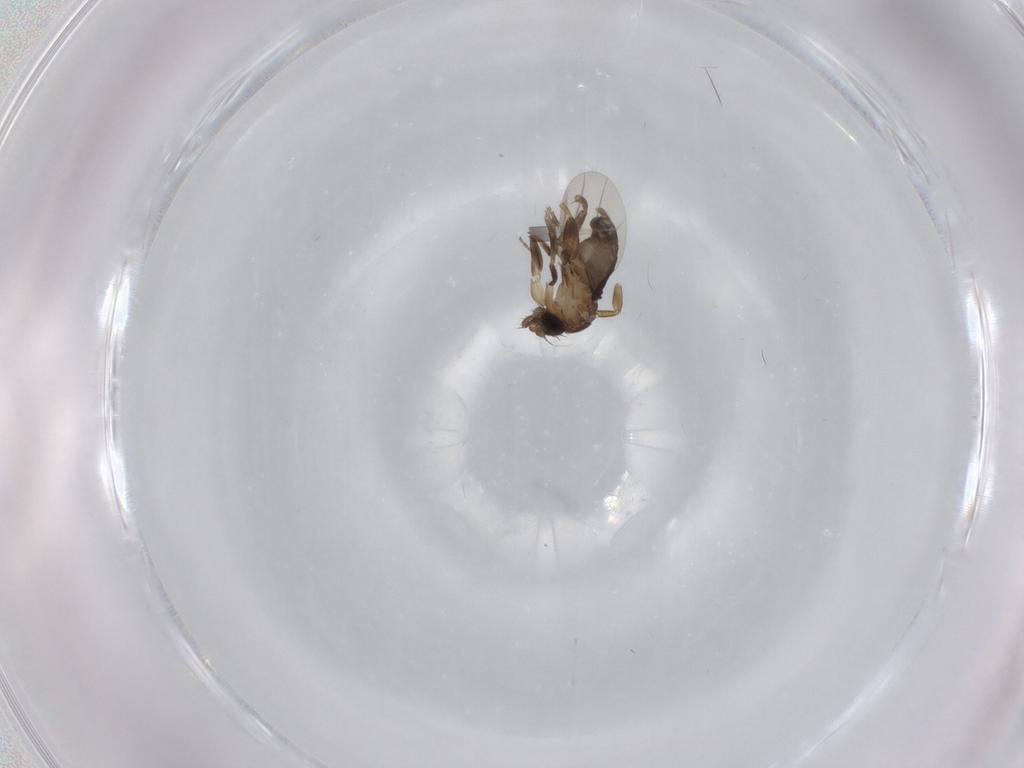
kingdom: Animalia
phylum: Arthropoda
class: Insecta
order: Diptera
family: Phoridae
